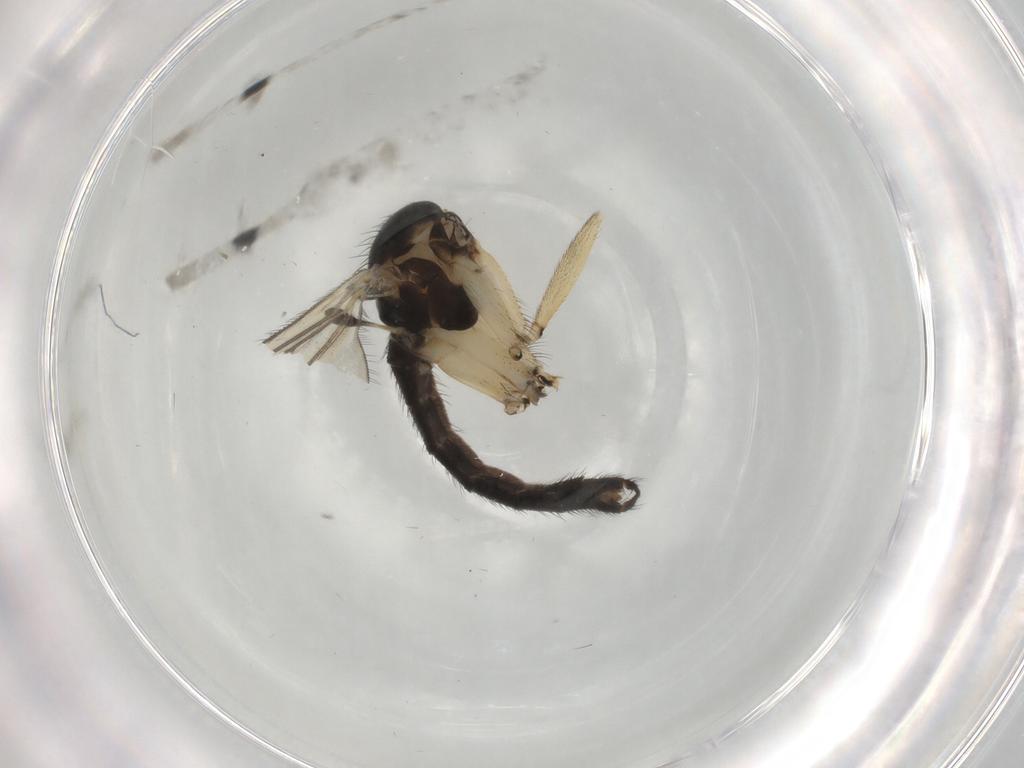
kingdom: Animalia
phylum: Arthropoda
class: Insecta
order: Diptera
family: Sciaridae
